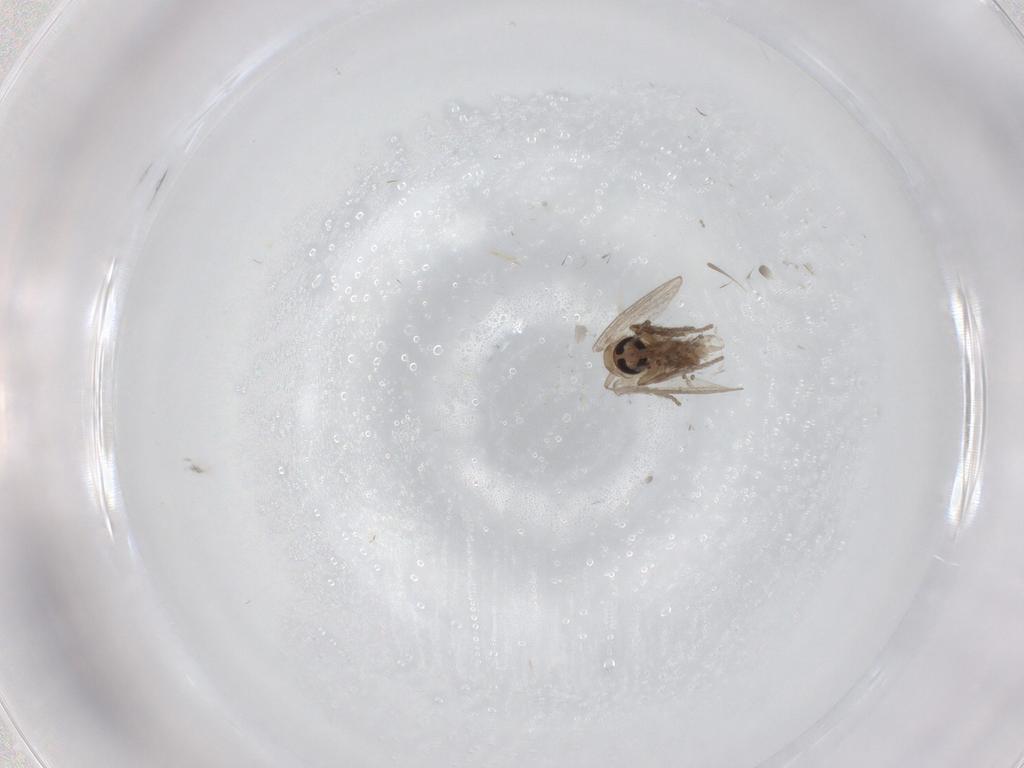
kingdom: Animalia
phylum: Arthropoda
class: Insecta
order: Diptera
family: Psychodidae
